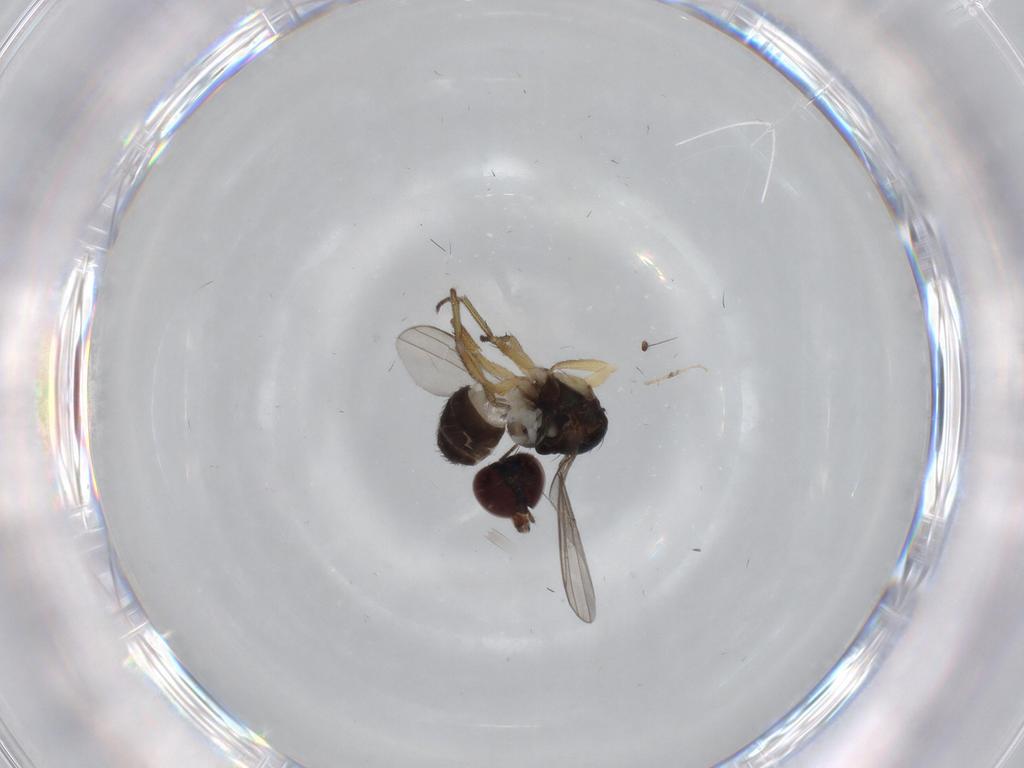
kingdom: Animalia
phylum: Arthropoda
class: Insecta
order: Diptera
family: Dolichopodidae
